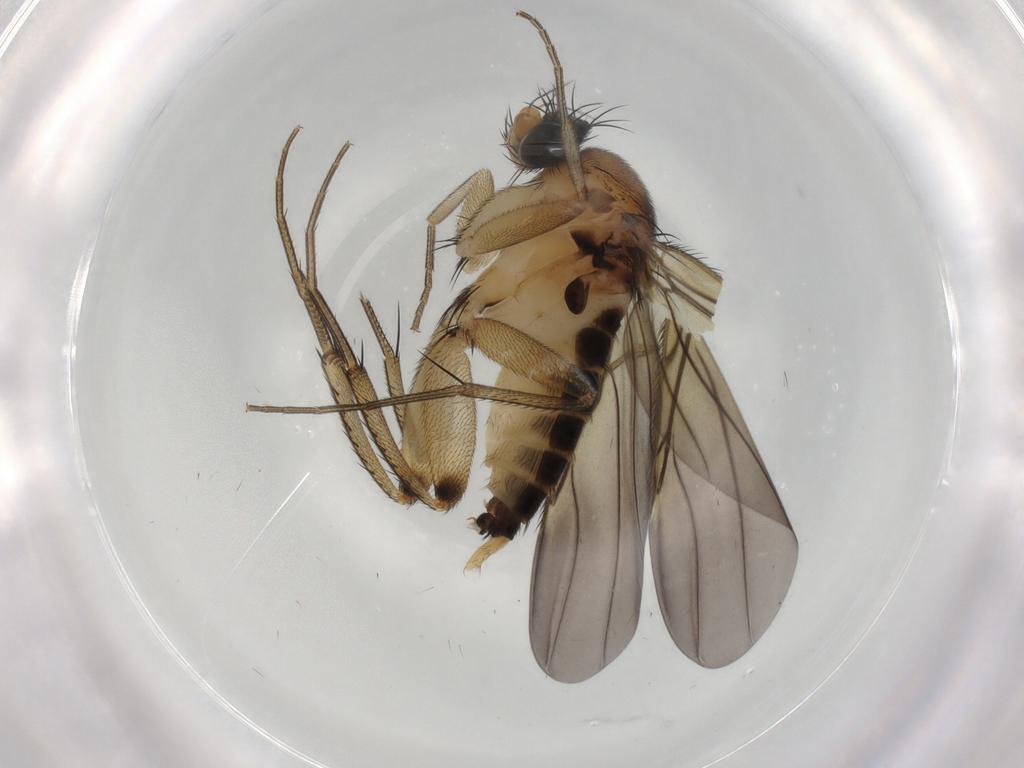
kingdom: Animalia
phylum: Arthropoda
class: Insecta
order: Diptera
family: Phoridae
